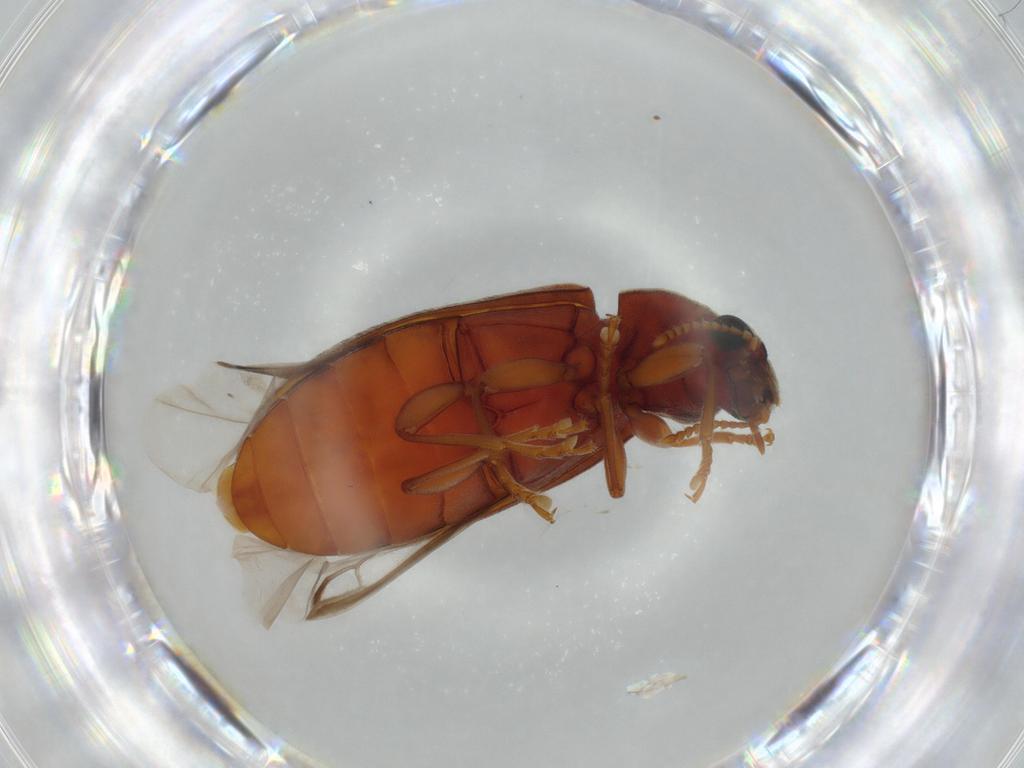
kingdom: Animalia
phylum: Arthropoda
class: Insecta
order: Coleoptera
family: Mycteridae
